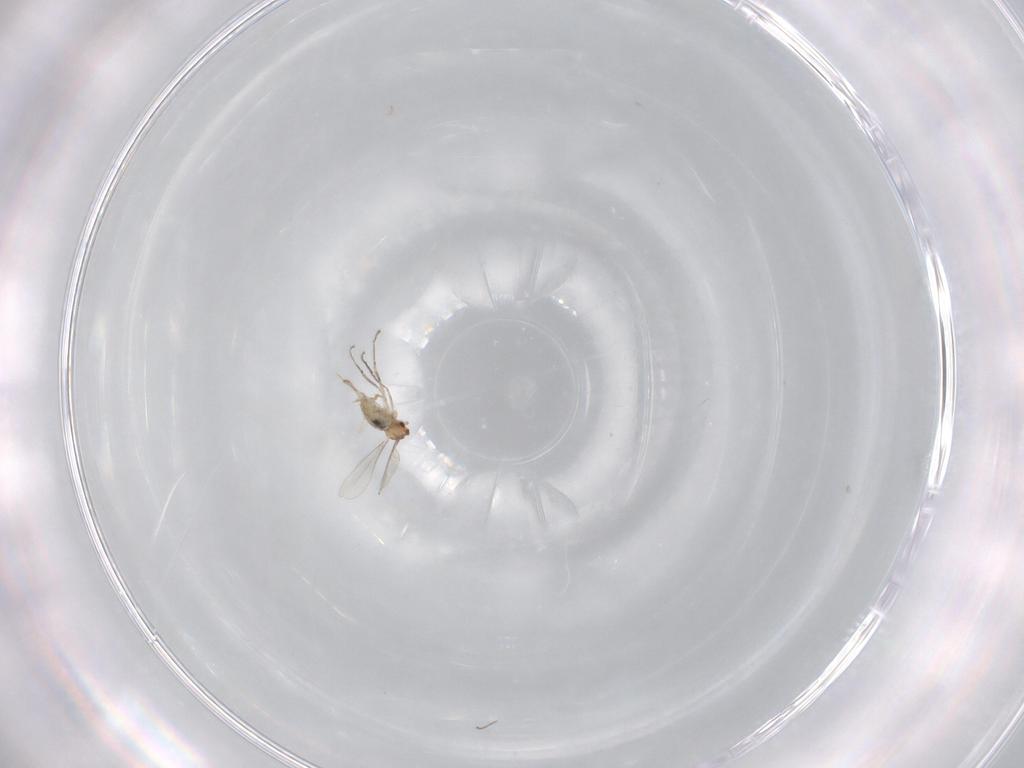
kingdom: Animalia
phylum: Arthropoda
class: Insecta
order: Diptera
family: Cecidomyiidae
